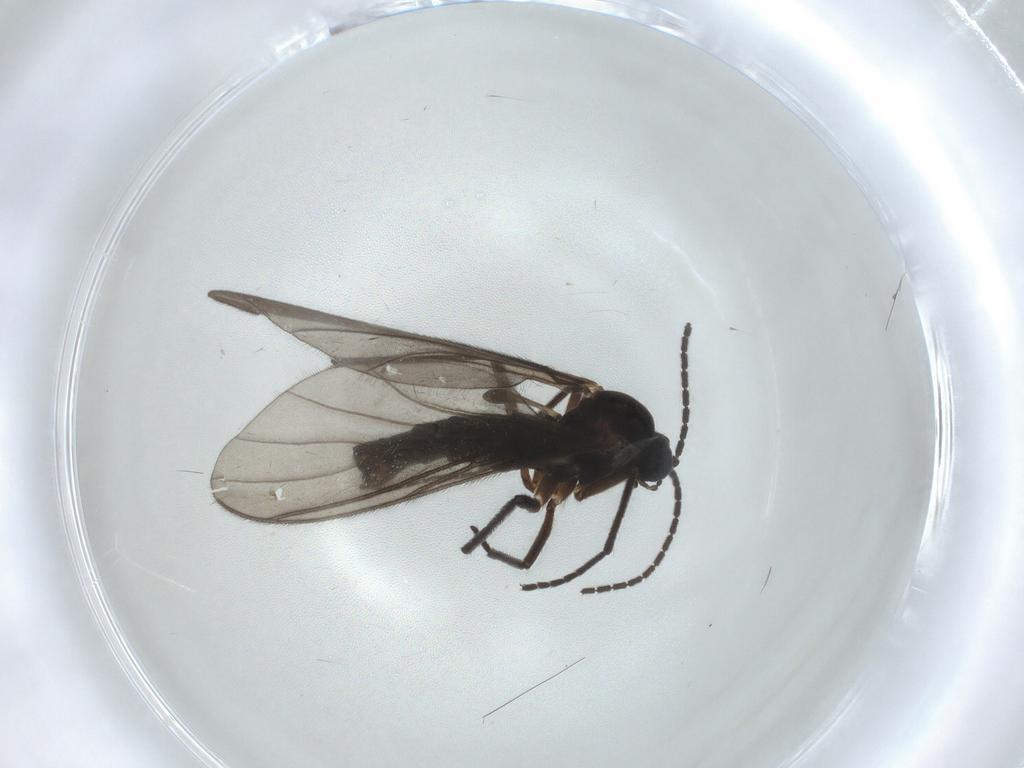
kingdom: Animalia
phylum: Arthropoda
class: Insecta
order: Diptera
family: Sciaridae
